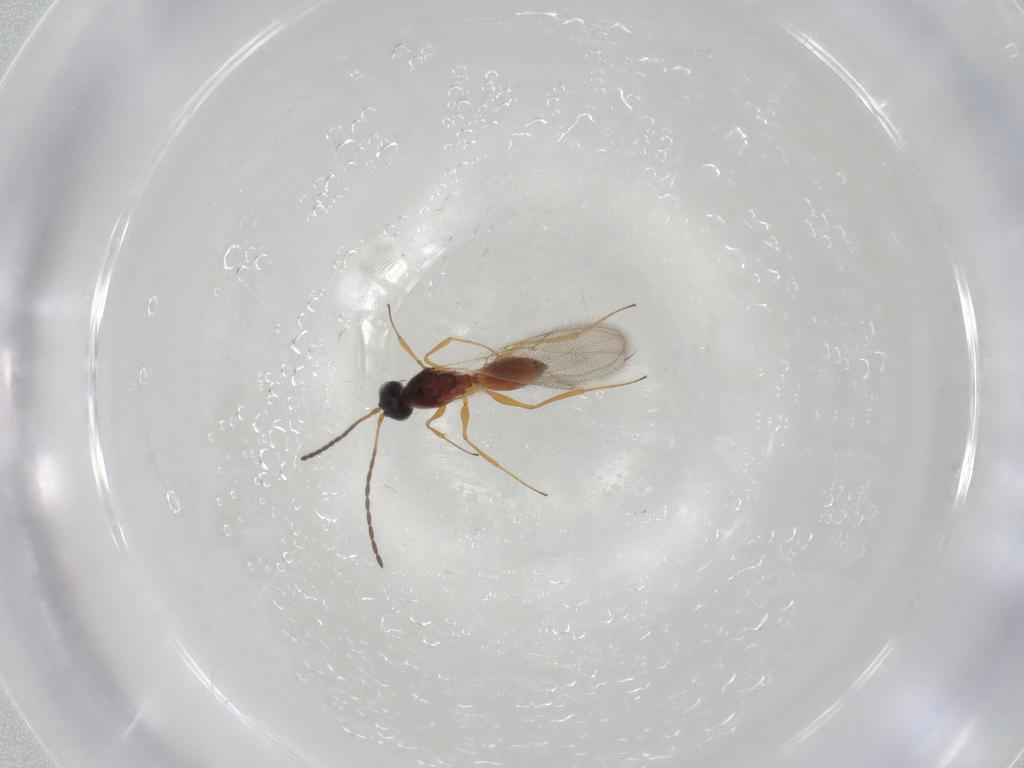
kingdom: Animalia
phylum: Arthropoda
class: Insecta
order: Hymenoptera
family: Figitidae
